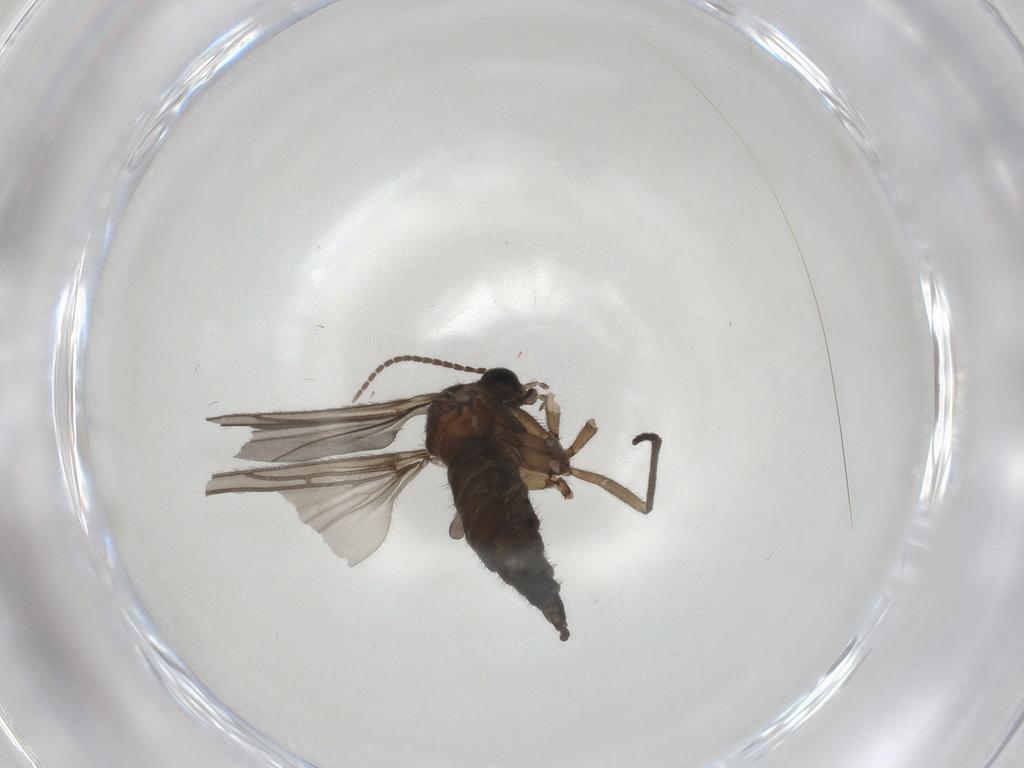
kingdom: Animalia
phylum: Arthropoda
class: Insecta
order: Diptera
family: Sciaridae
